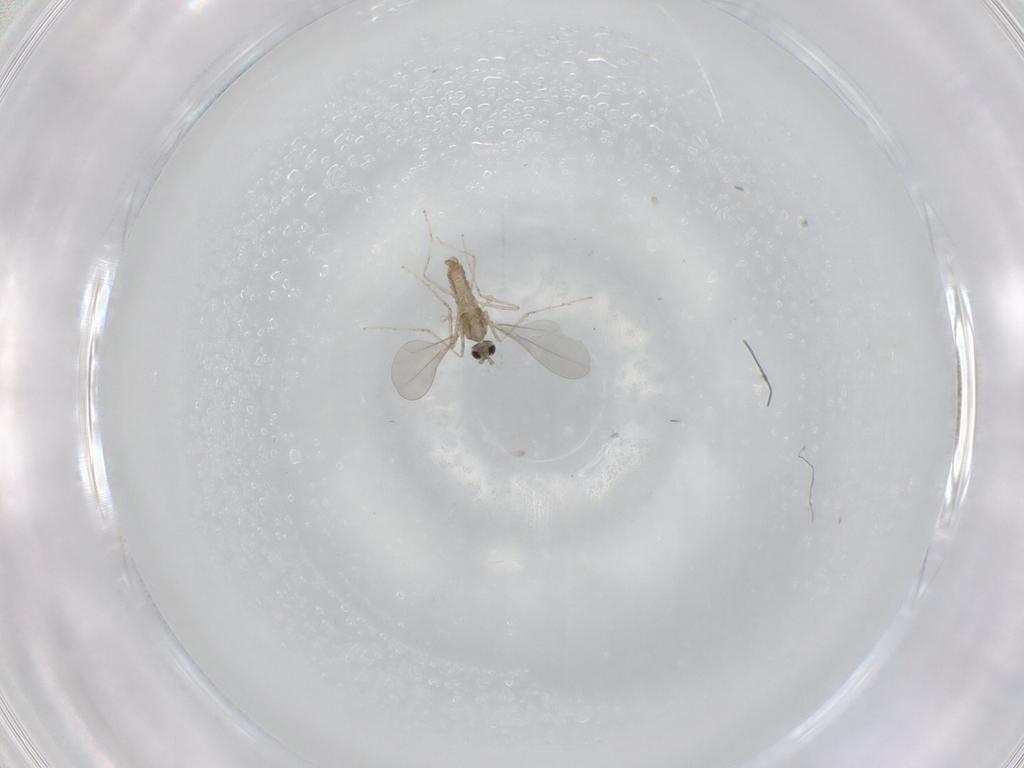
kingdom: Animalia
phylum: Arthropoda
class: Insecta
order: Diptera
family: Cecidomyiidae
